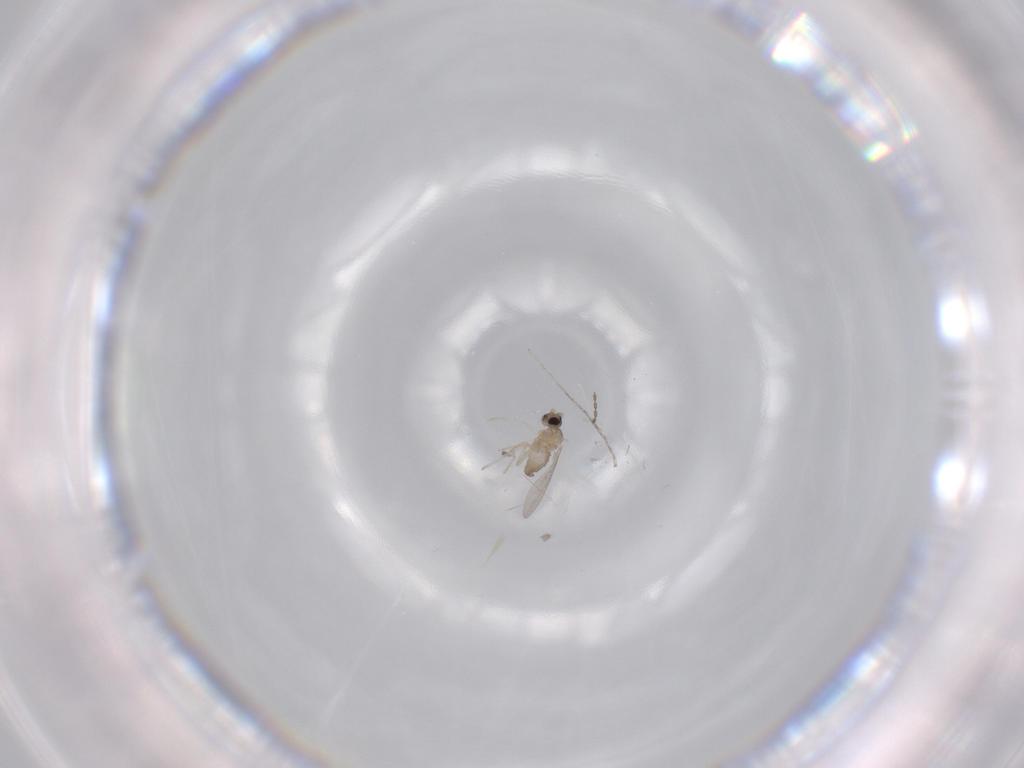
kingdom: Animalia
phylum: Arthropoda
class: Insecta
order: Diptera
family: Cecidomyiidae
